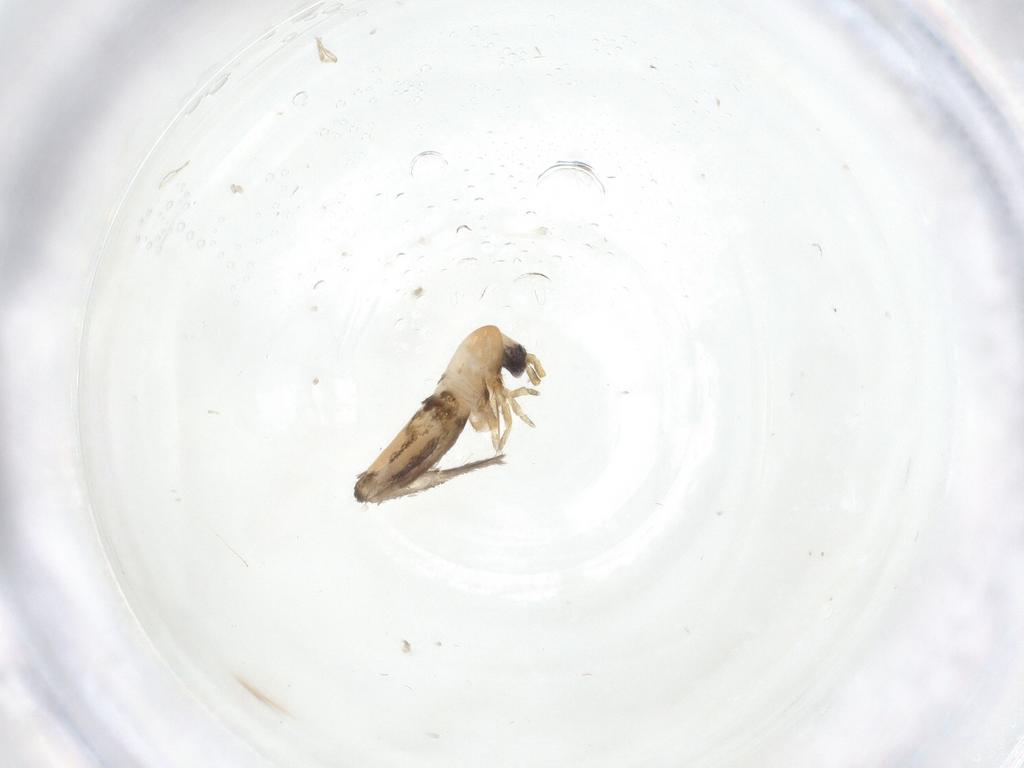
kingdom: Animalia
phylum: Arthropoda
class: Collembola
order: Entomobryomorpha
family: Entomobryidae
